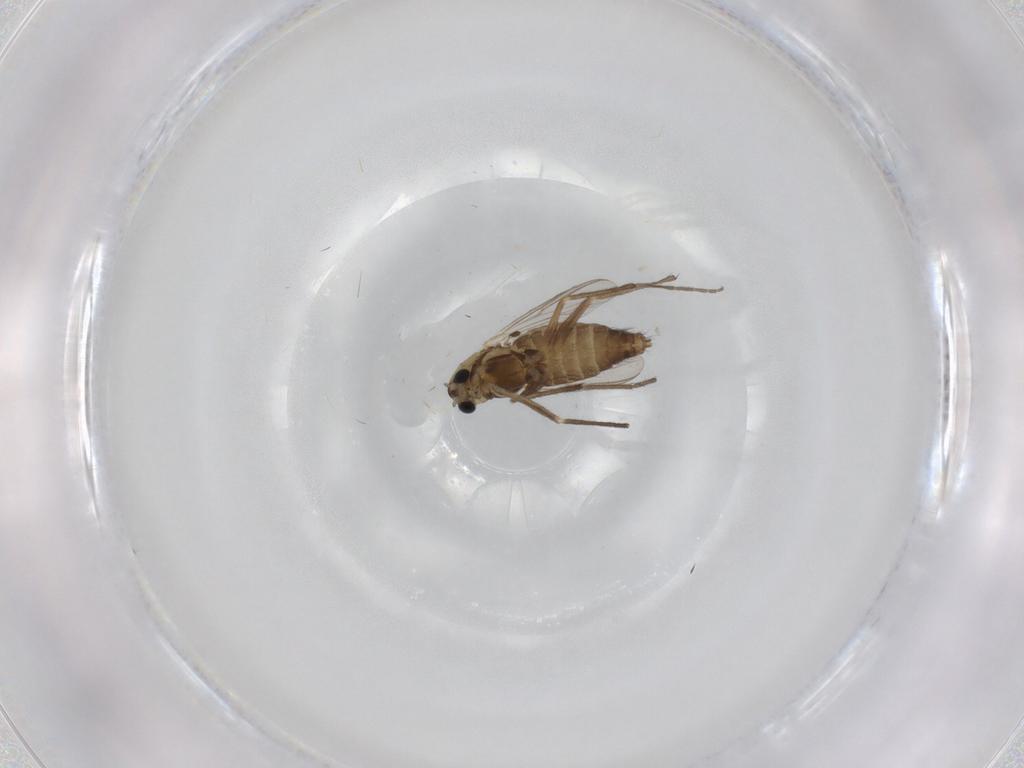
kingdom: Animalia
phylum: Arthropoda
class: Insecta
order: Diptera
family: Chironomidae
